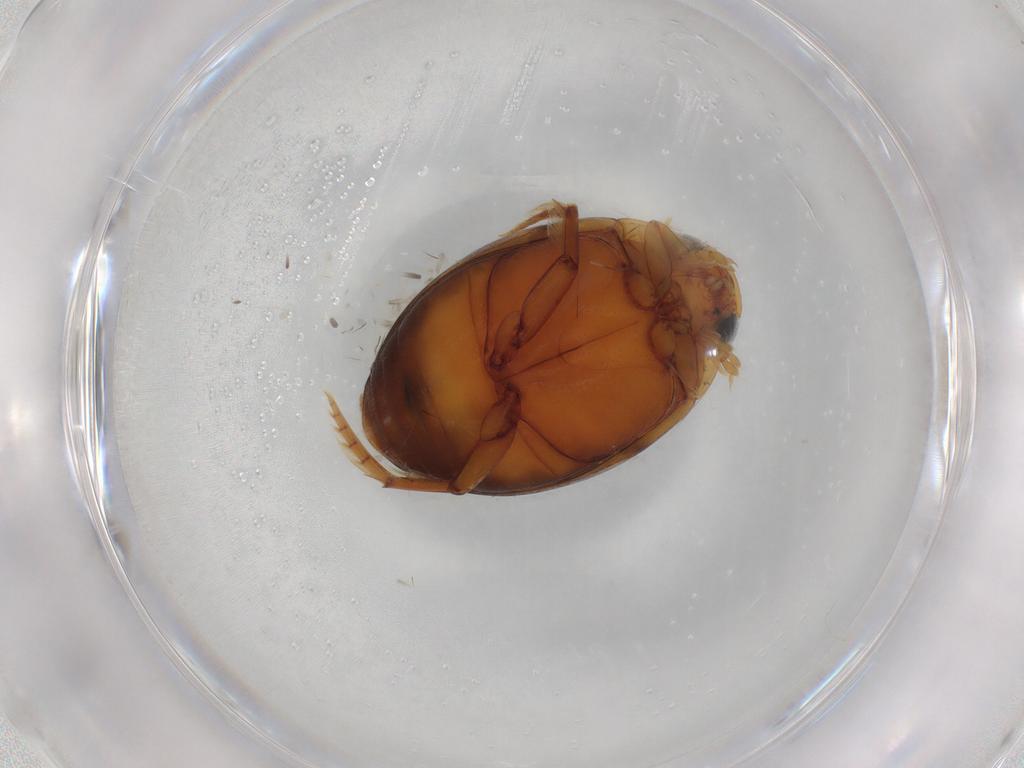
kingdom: Animalia
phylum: Arthropoda
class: Insecta
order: Coleoptera
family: Dytiscidae
